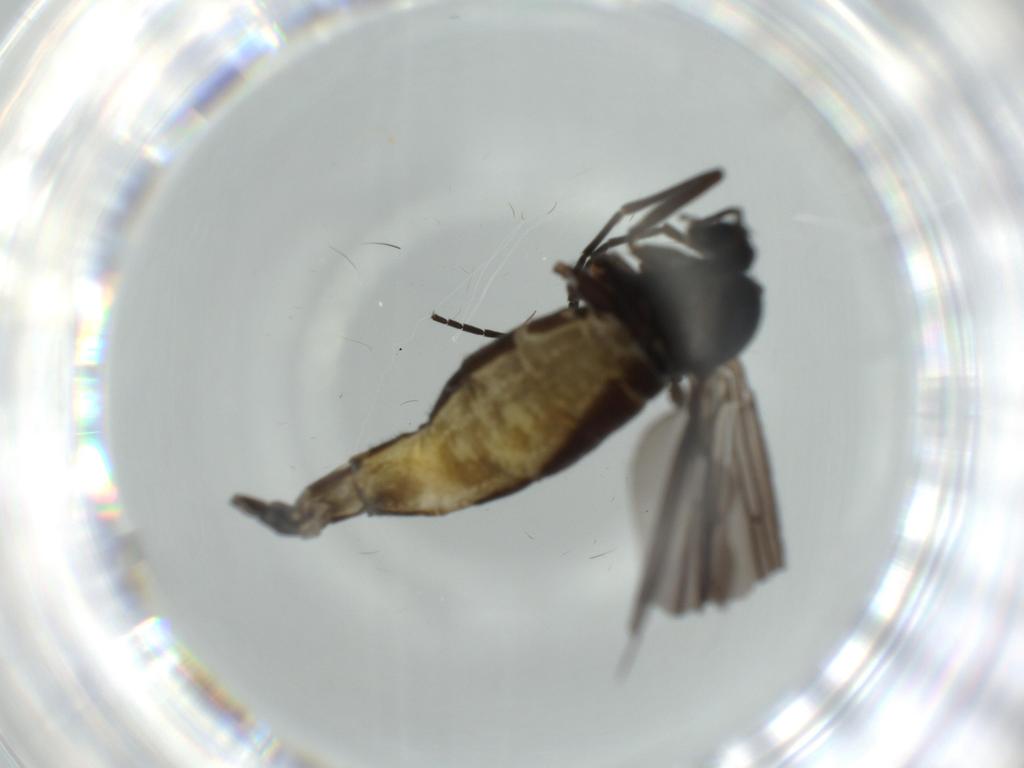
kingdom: Animalia
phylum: Arthropoda
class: Insecta
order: Diptera
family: Chironomidae
